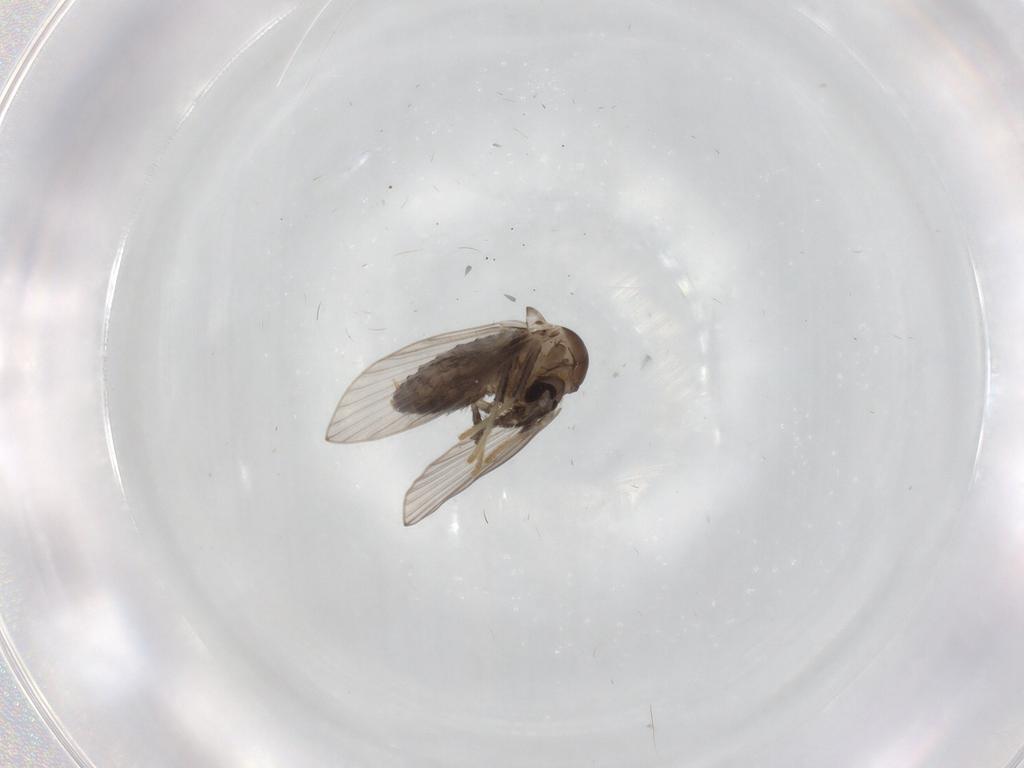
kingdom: Animalia
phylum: Arthropoda
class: Insecta
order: Diptera
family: Psychodidae
